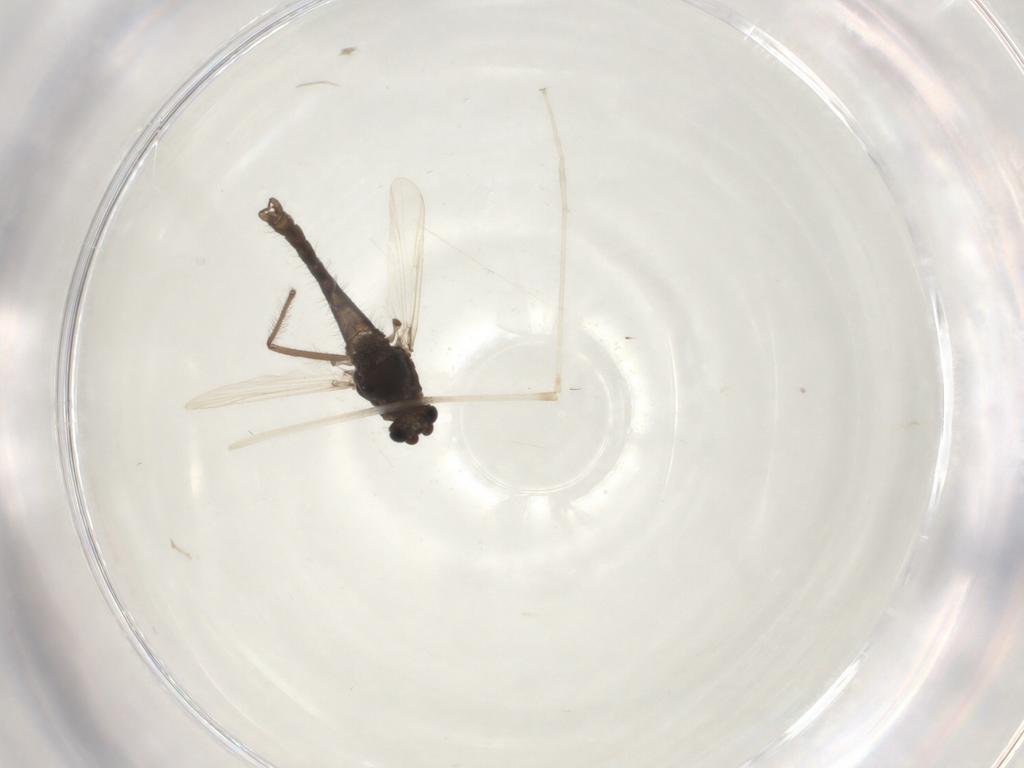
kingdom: Animalia
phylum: Arthropoda
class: Insecta
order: Diptera
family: Chironomidae
